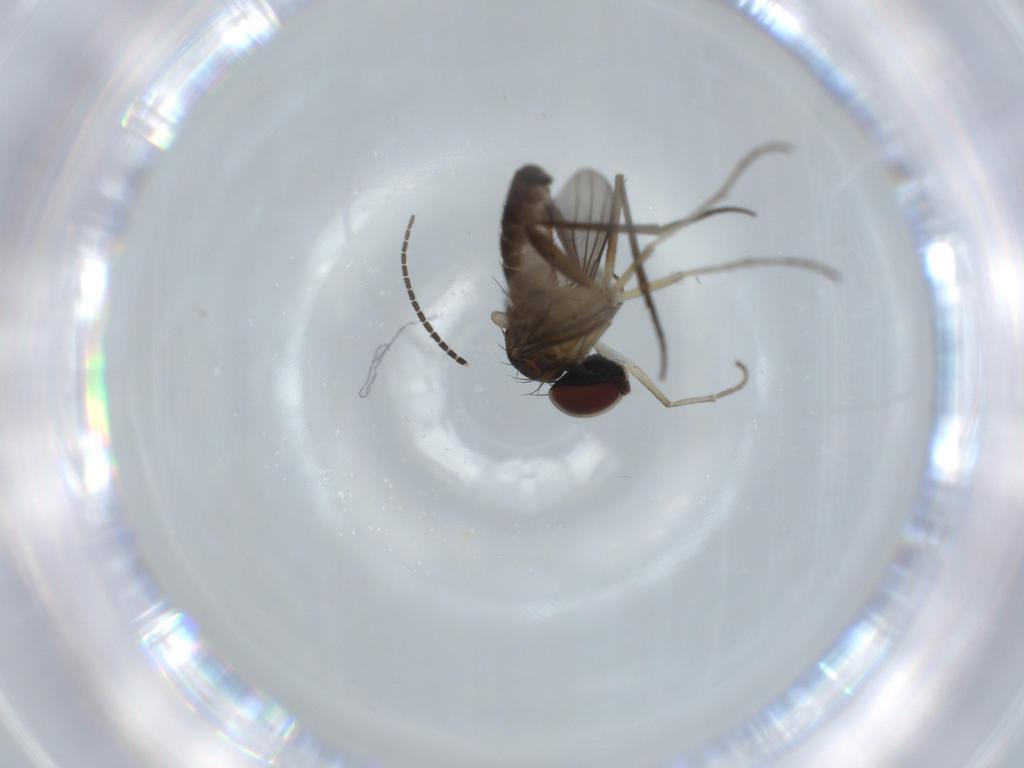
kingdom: Animalia
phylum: Arthropoda
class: Insecta
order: Diptera
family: Dolichopodidae
